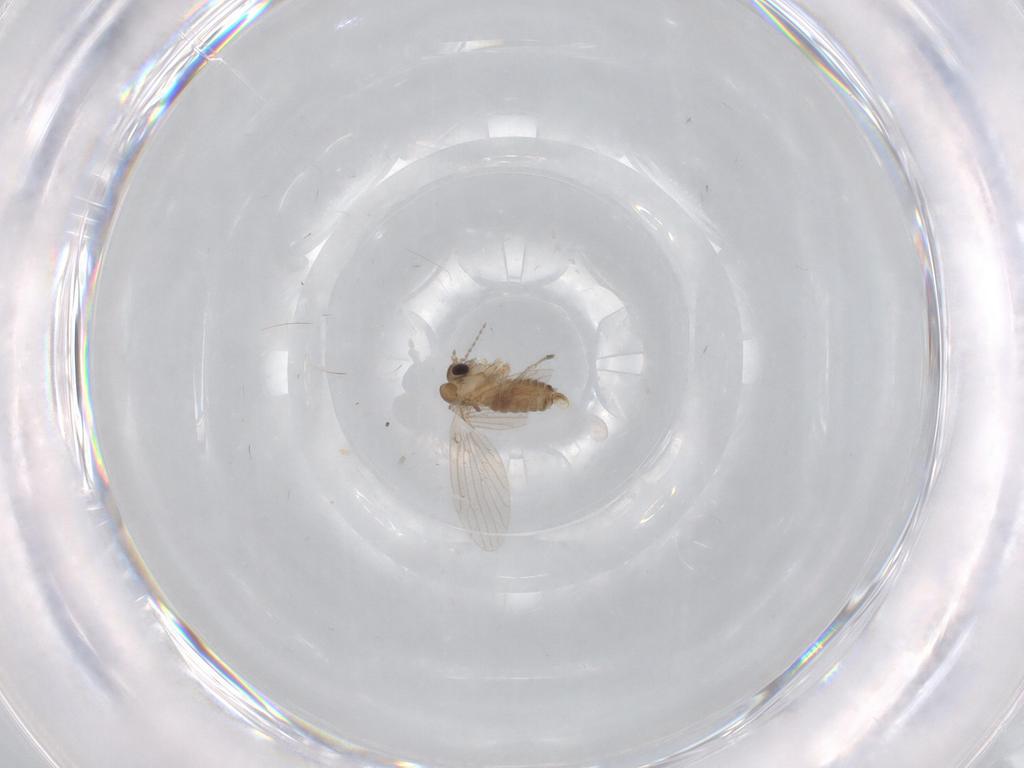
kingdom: Animalia
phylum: Arthropoda
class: Insecta
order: Diptera
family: Psychodidae
